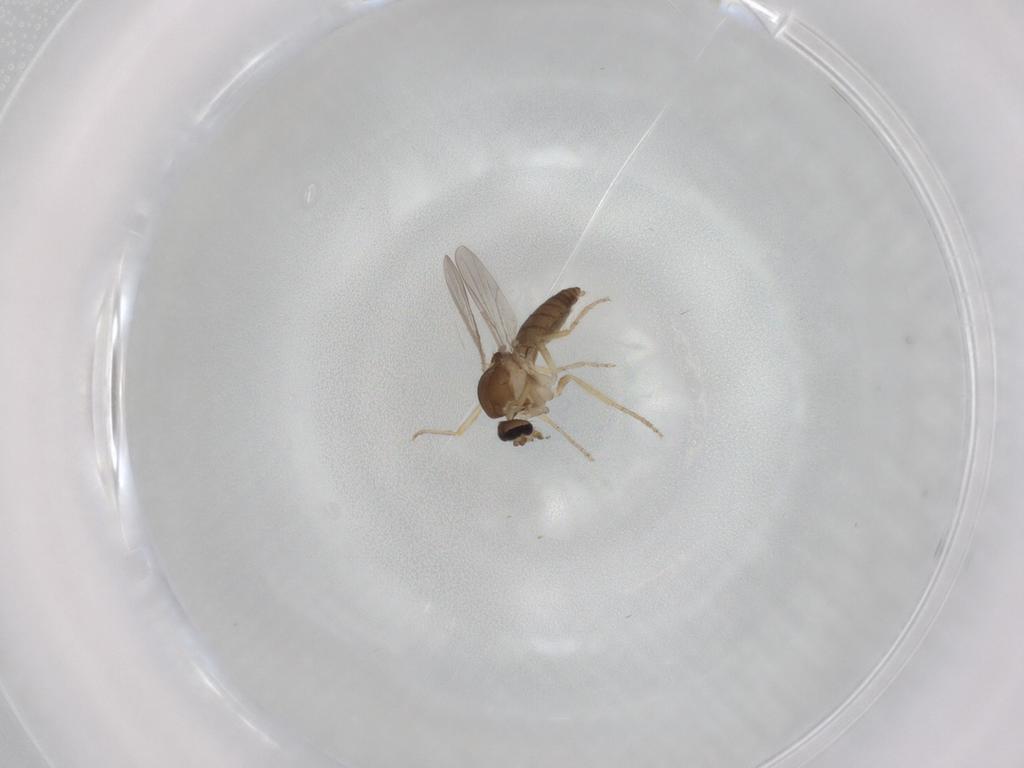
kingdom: Animalia
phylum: Arthropoda
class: Insecta
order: Diptera
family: Ceratopogonidae
